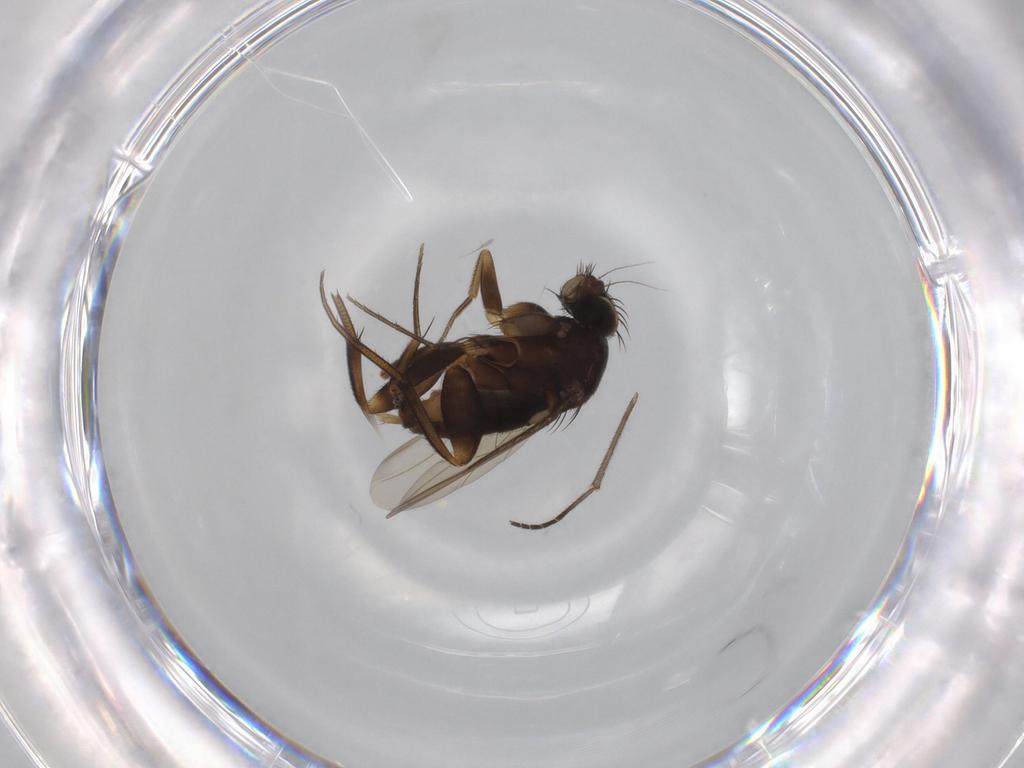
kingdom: Animalia
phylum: Arthropoda
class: Insecta
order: Diptera
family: Phoridae
